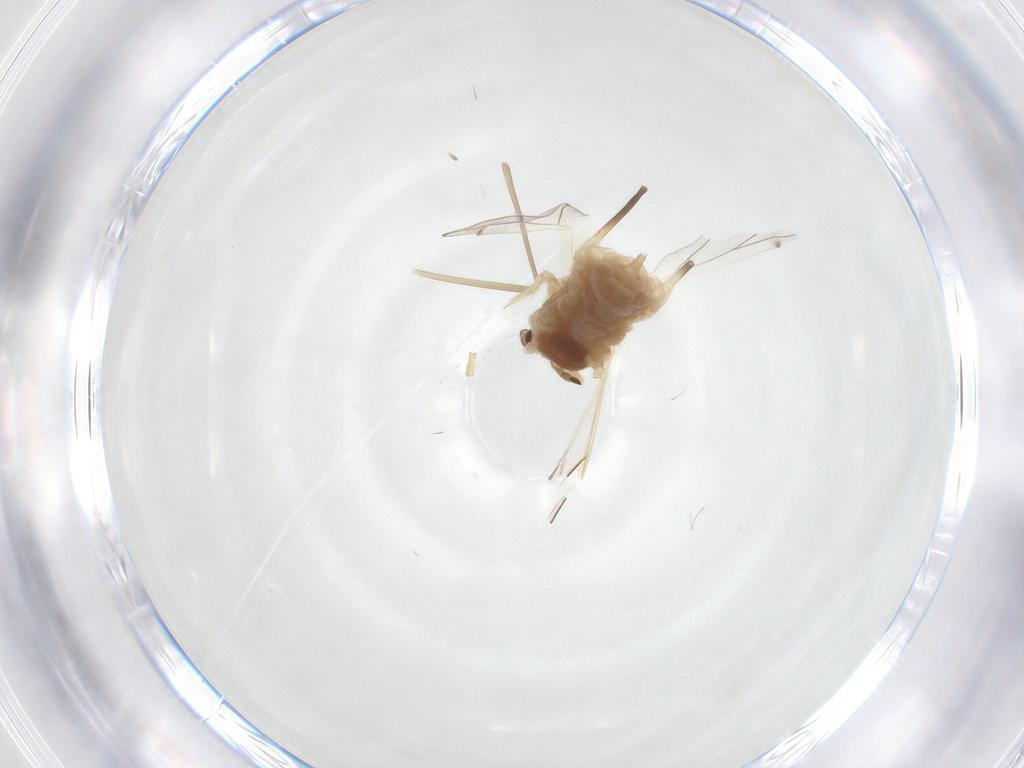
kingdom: Animalia
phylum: Arthropoda
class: Insecta
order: Hemiptera
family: Aphididae
